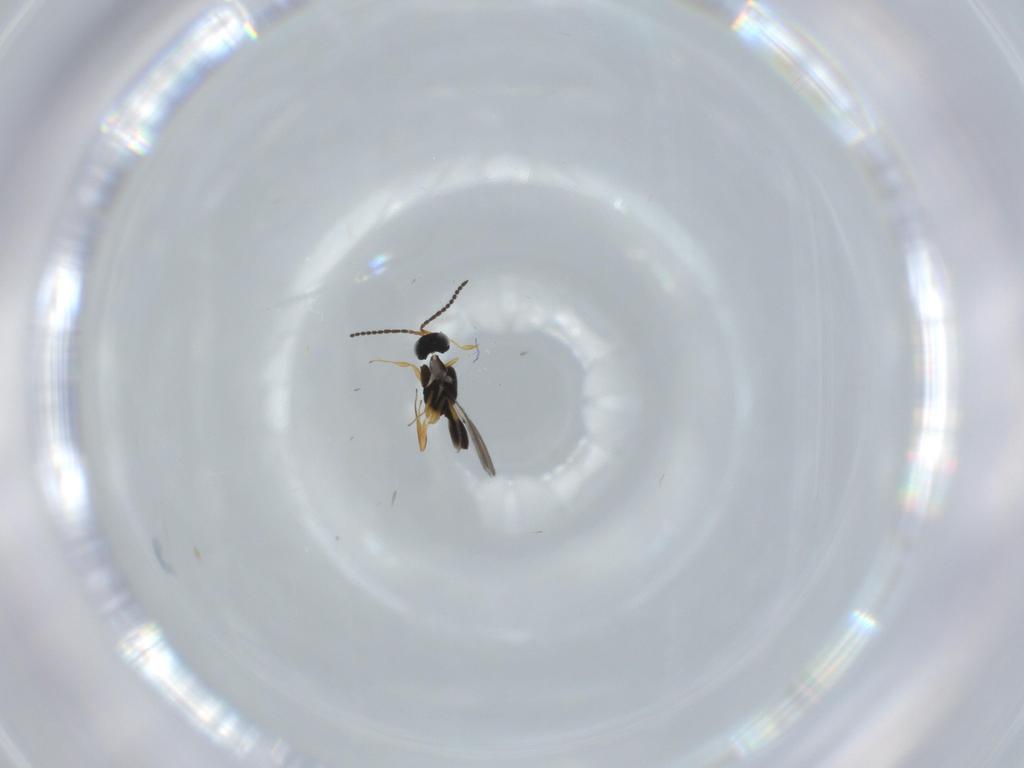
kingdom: Animalia
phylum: Arthropoda
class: Insecta
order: Hymenoptera
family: Scelionidae
